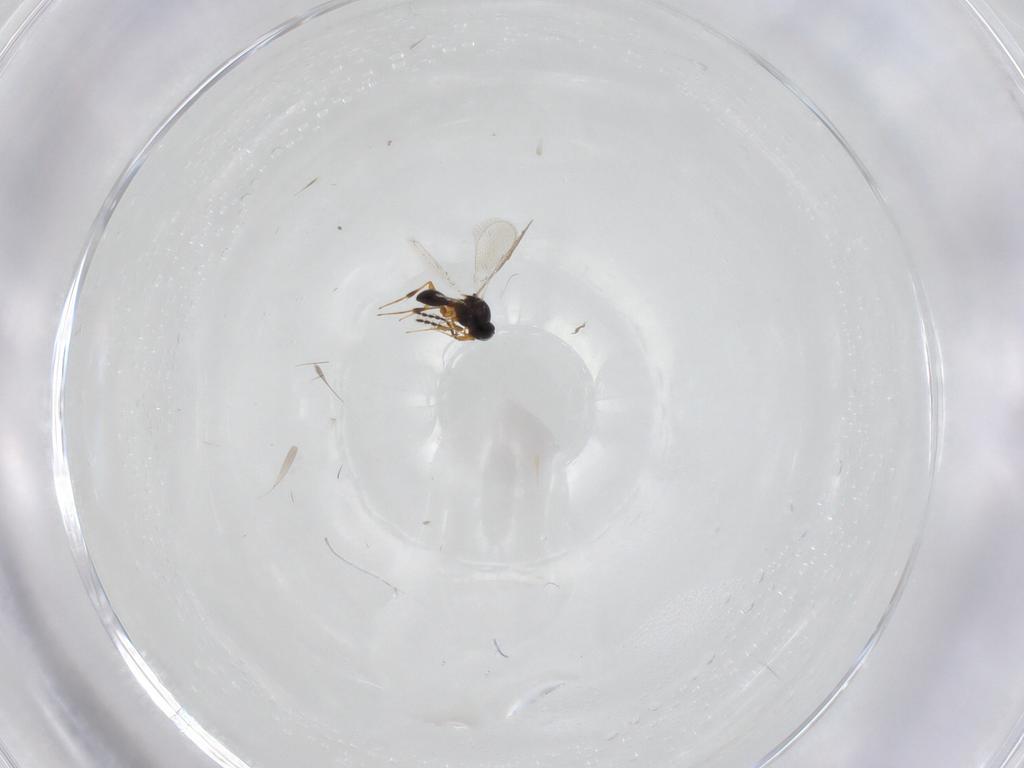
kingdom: Animalia
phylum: Arthropoda
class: Insecta
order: Hymenoptera
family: Platygastridae
